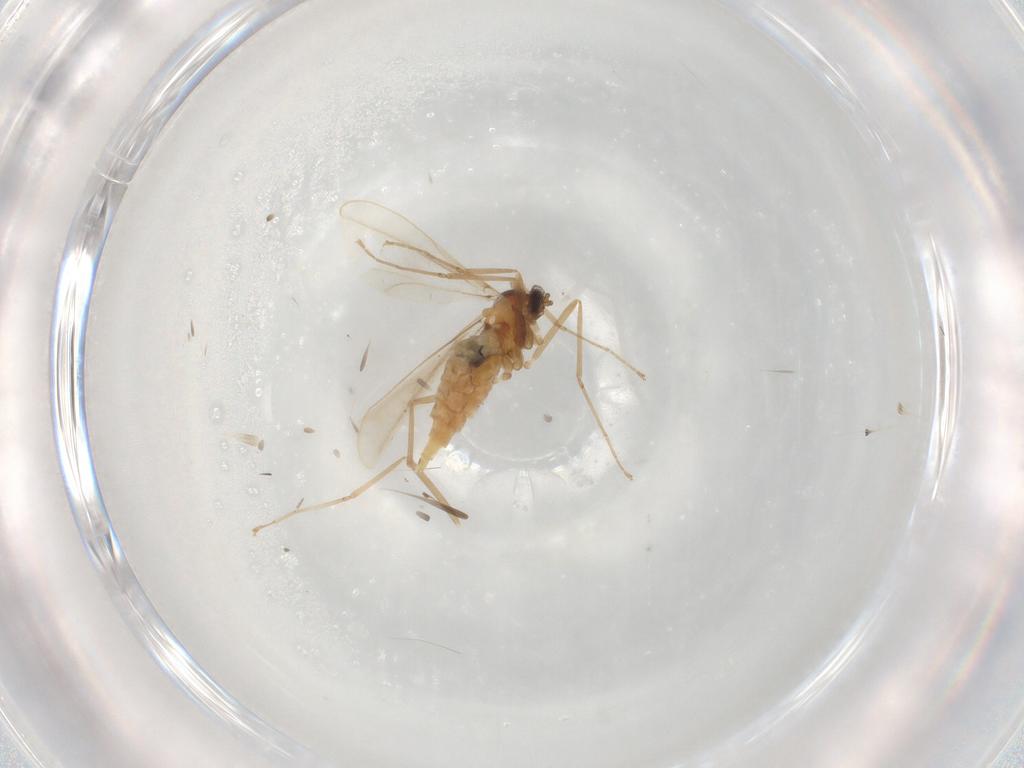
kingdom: Animalia
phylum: Arthropoda
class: Insecta
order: Diptera
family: Cecidomyiidae
